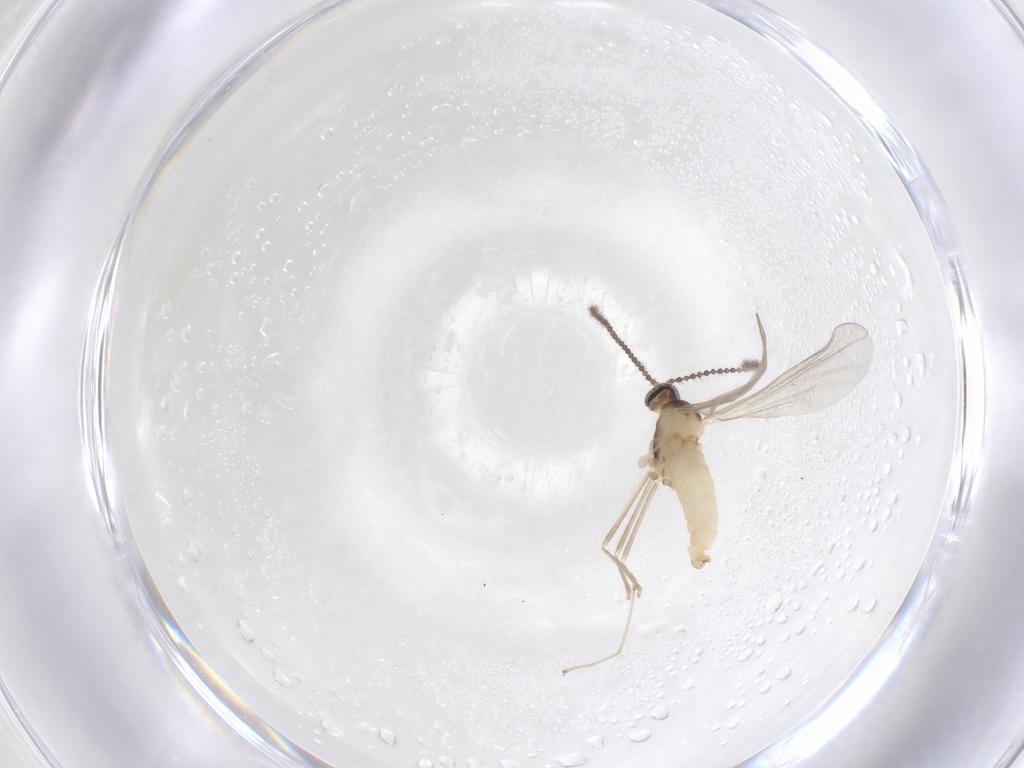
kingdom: Animalia
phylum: Arthropoda
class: Insecta
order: Diptera
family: Cecidomyiidae
